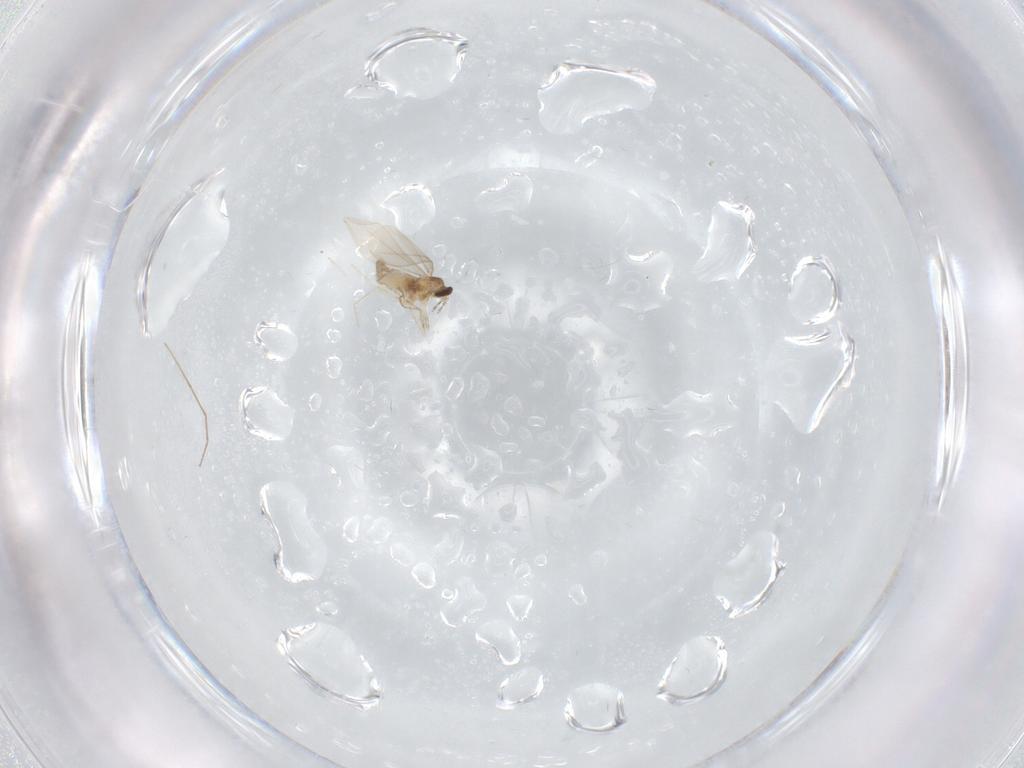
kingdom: Animalia
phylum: Arthropoda
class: Insecta
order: Diptera
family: Cecidomyiidae
